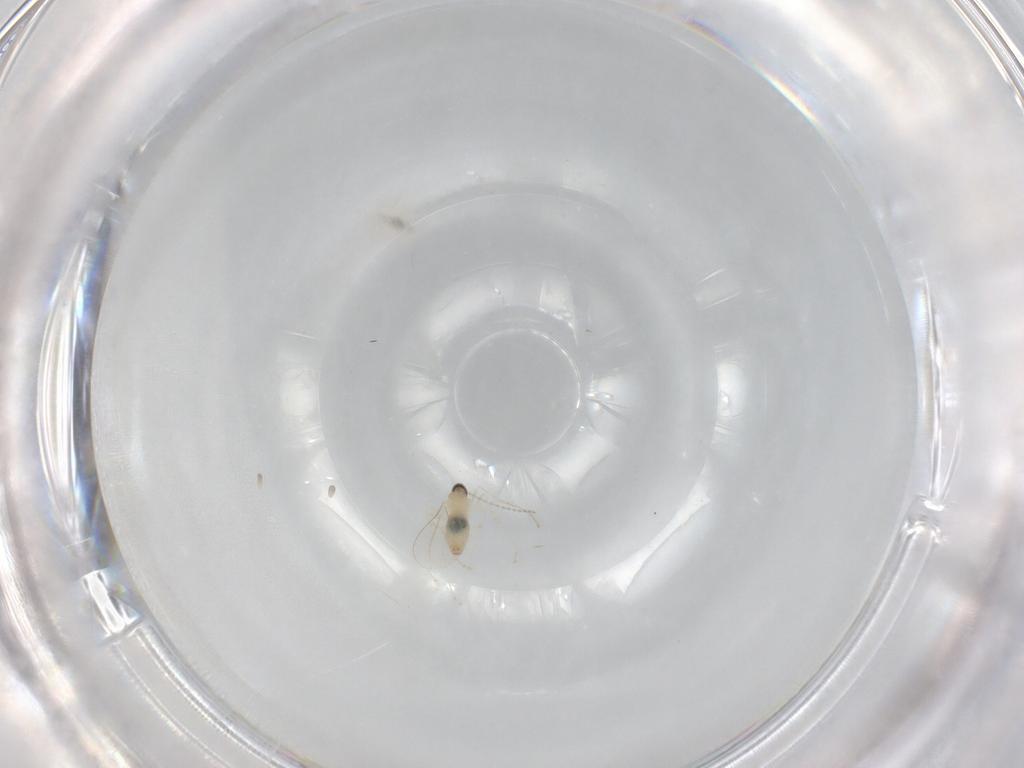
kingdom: Animalia
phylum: Arthropoda
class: Insecta
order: Diptera
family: Cecidomyiidae
